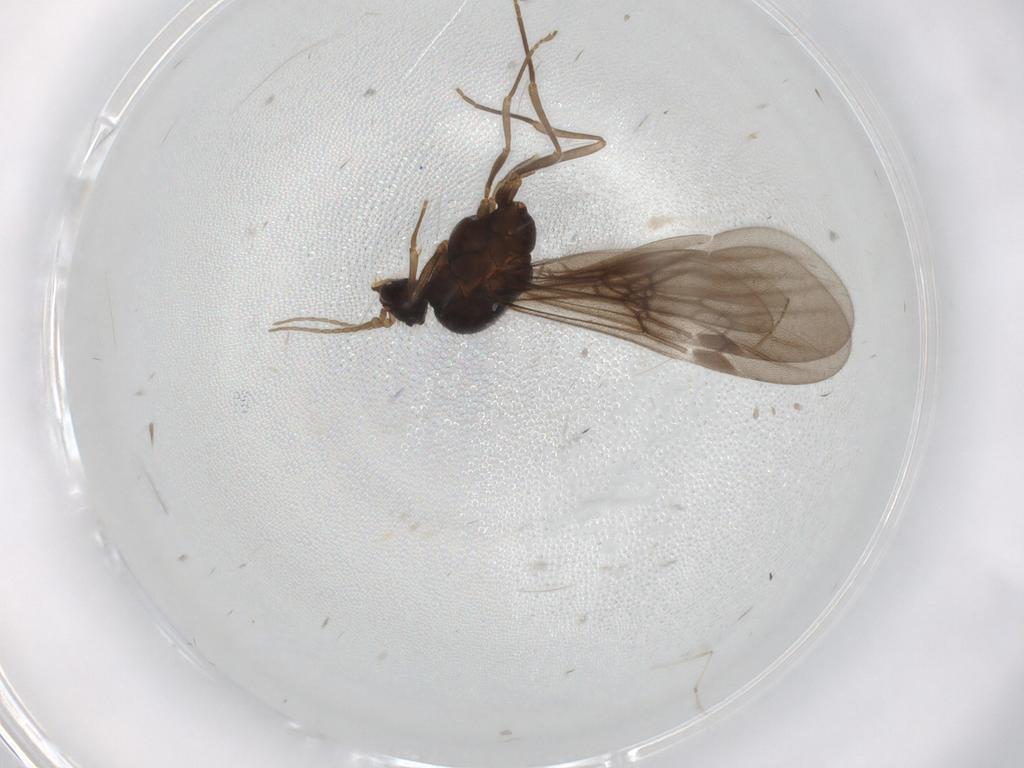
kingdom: Animalia
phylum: Arthropoda
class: Insecta
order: Hymenoptera
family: Formicidae
